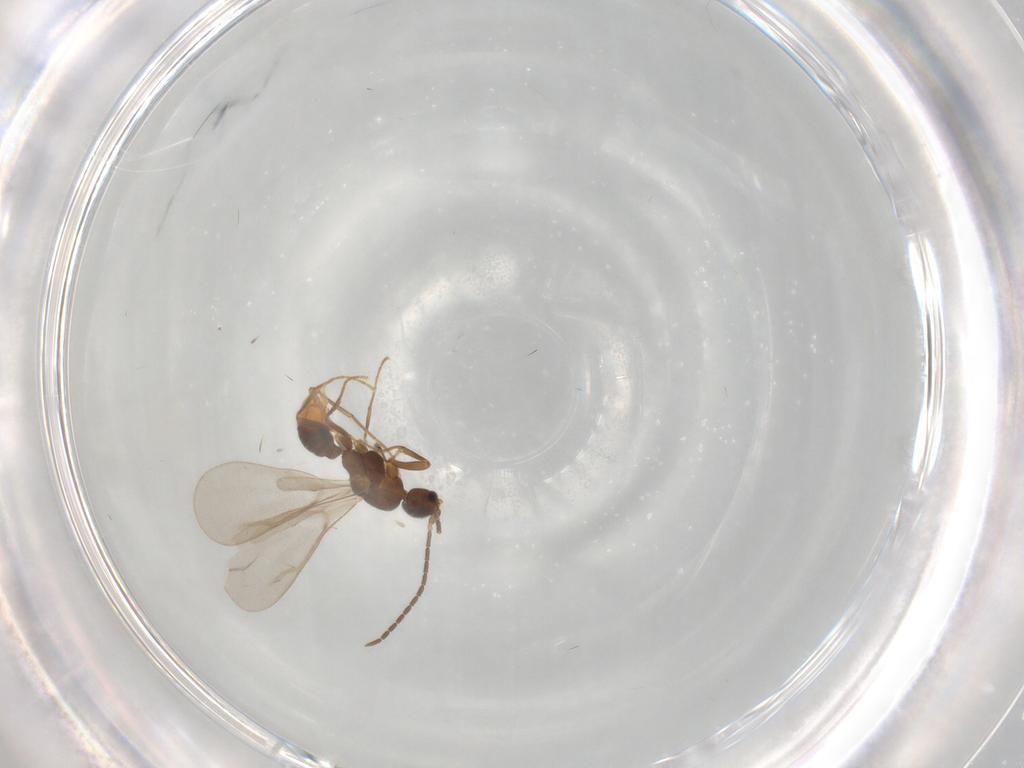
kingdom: Animalia
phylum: Arthropoda
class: Insecta
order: Hymenoptera
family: Formicidae
